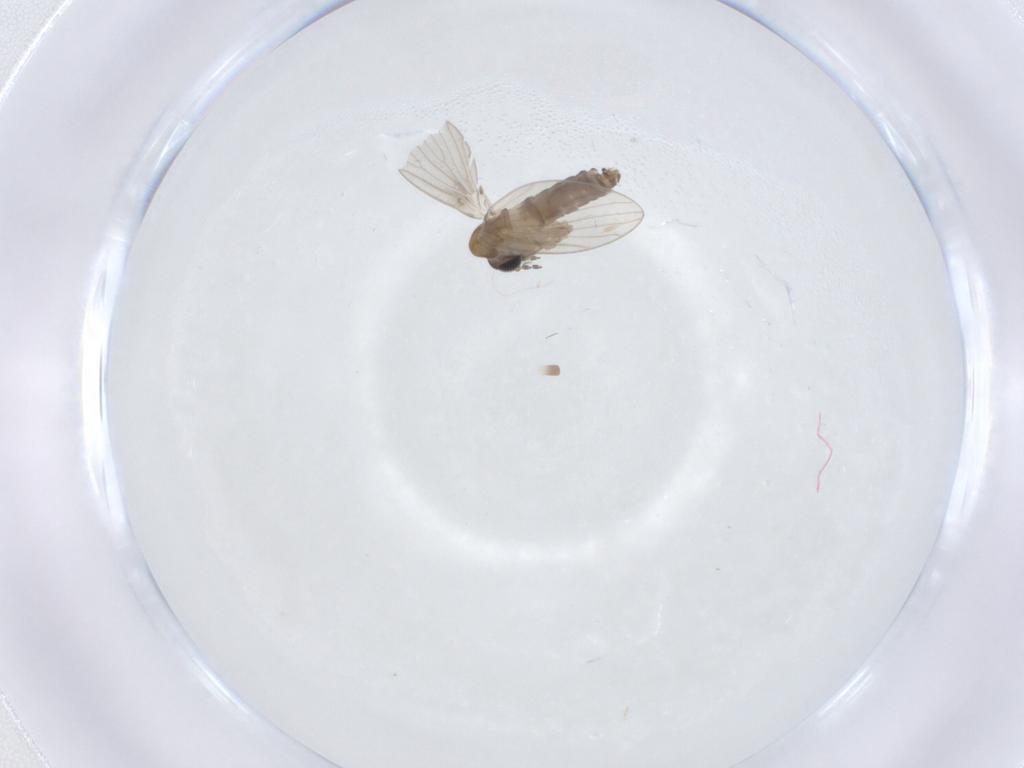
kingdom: Animalia
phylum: Arthropoda
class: Insecta
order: Diptera
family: Psychodidae
